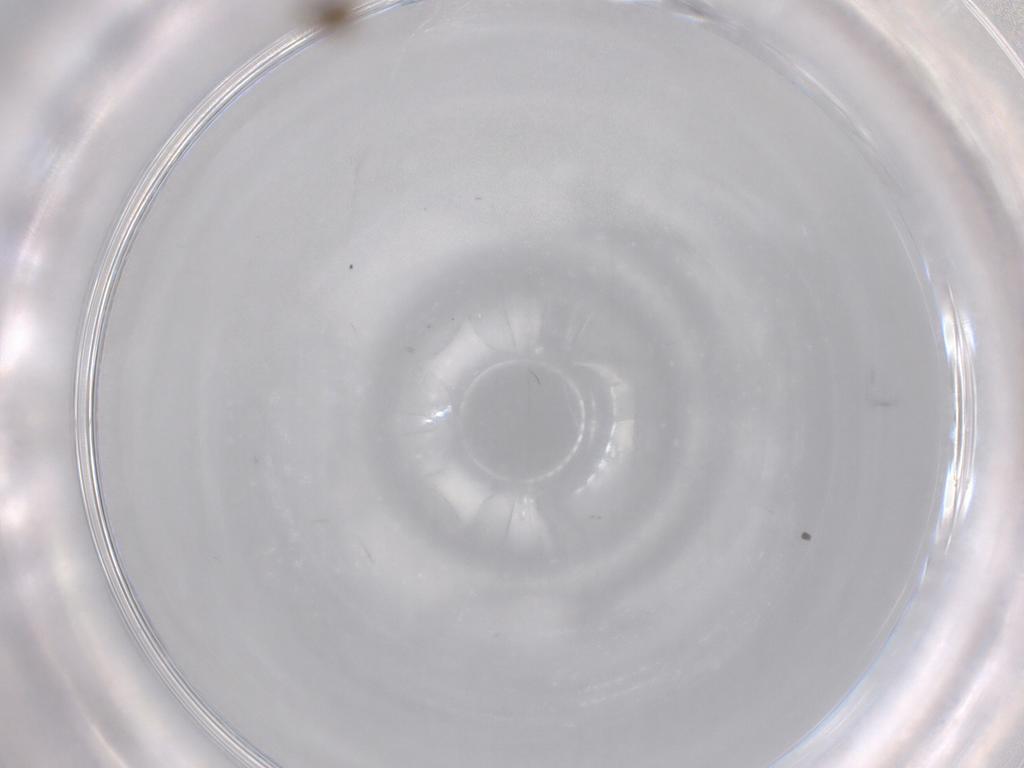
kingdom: Animalia
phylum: Arthropoda
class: Insecta
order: Diptera
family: Cecidomyiidae
